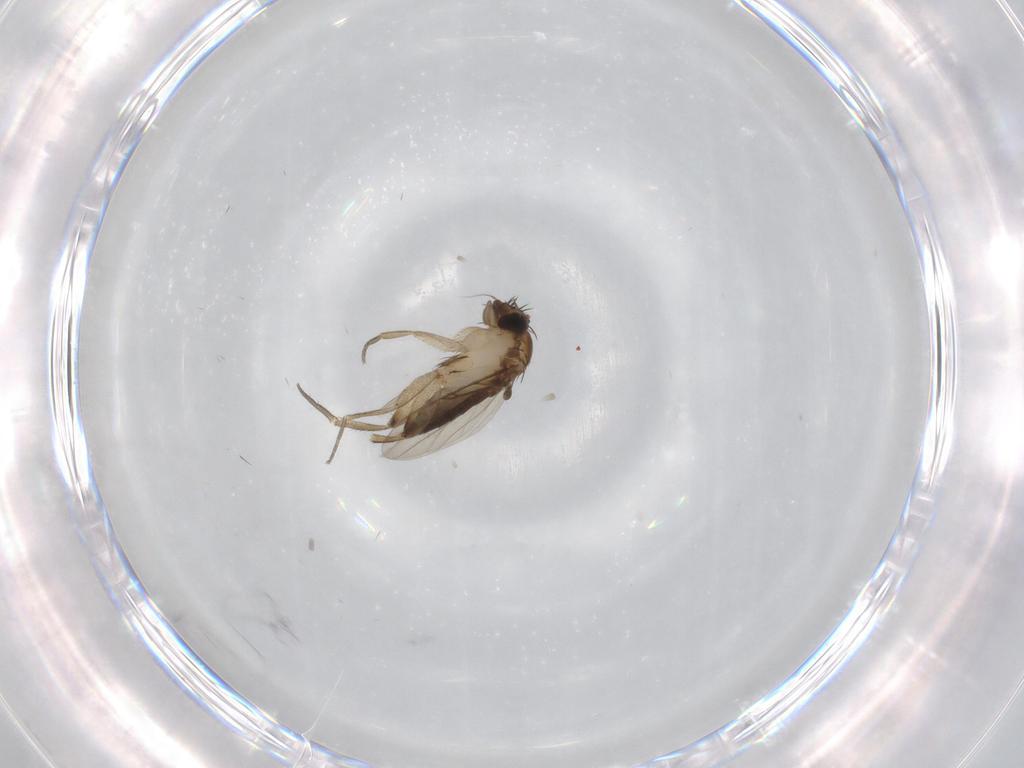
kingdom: Animalia
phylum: Arthropoda
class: Insecta
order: Diptera
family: Phoridae
